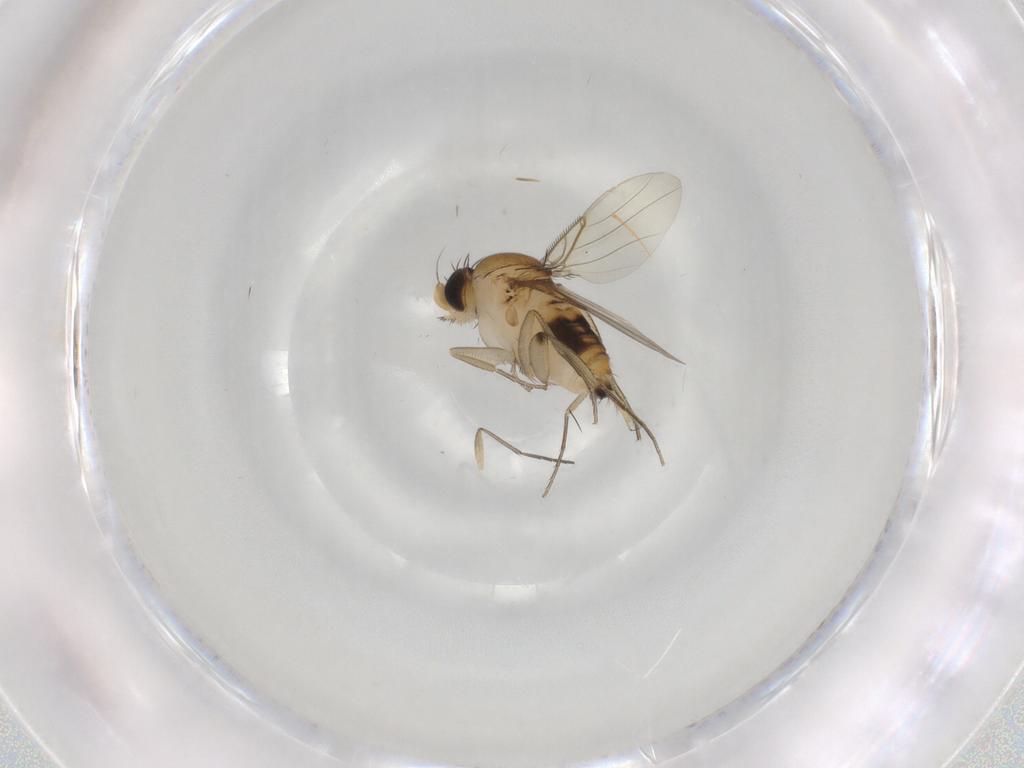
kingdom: Animalia
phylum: Arthropoda
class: Insecta
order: Diptera
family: Phoridae
